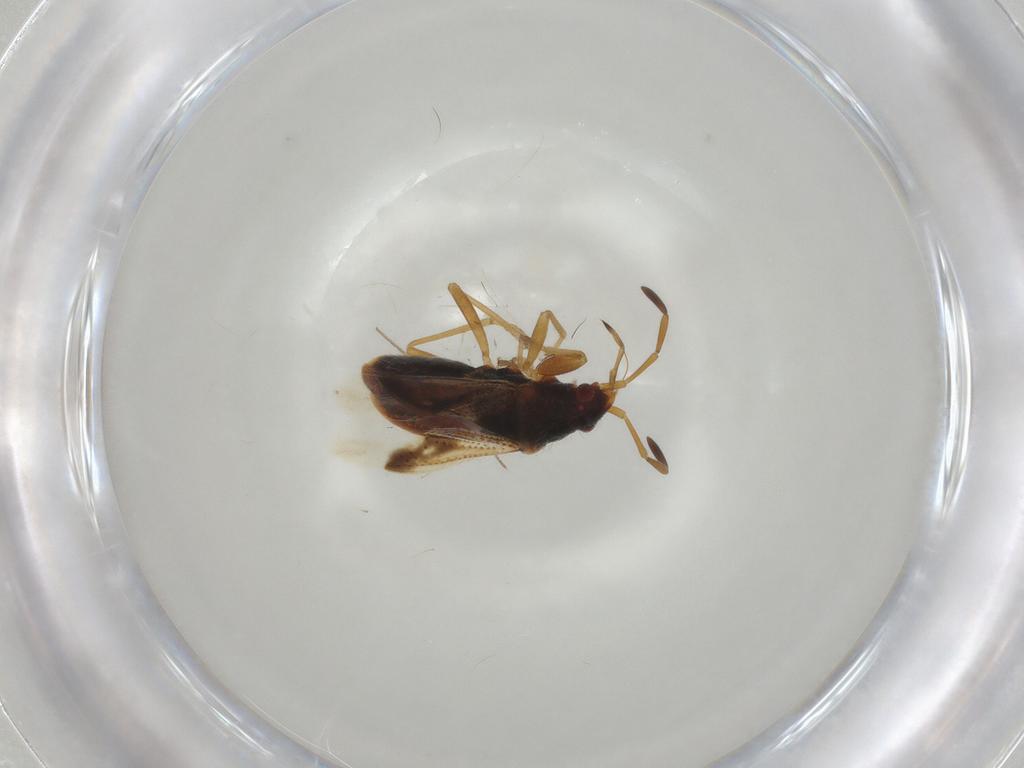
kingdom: Animalia
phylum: Arthropoda
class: Insecta
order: Hemiptera
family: Rhyparochromidae
